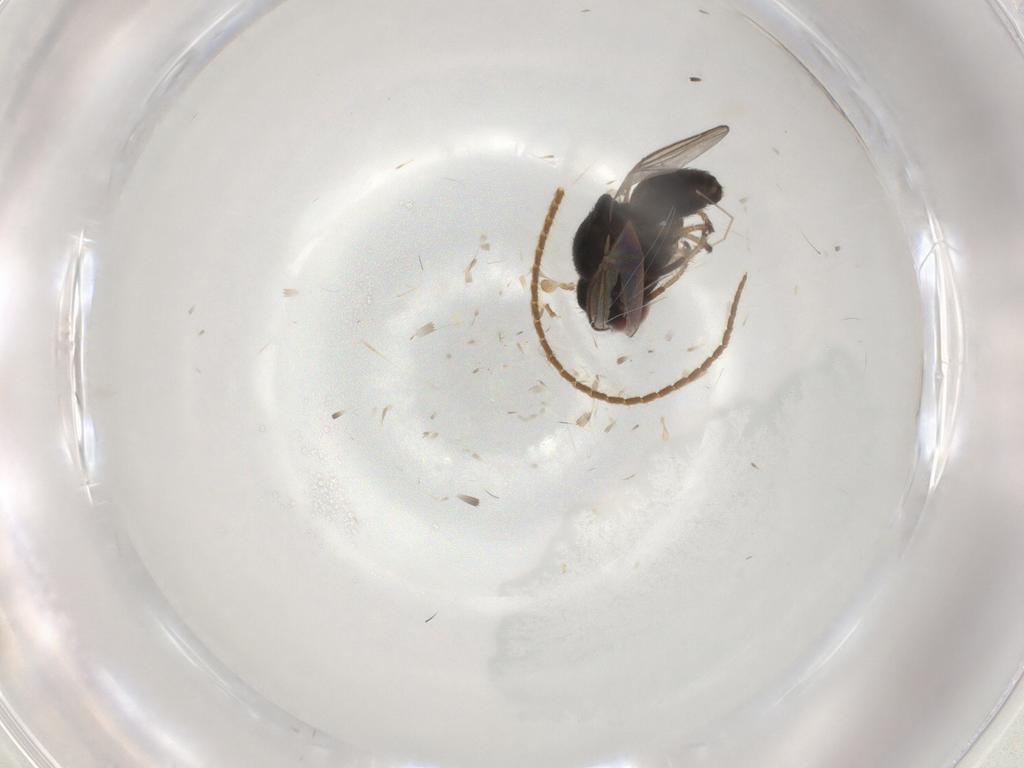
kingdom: Animalia
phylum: Arthropoda
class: Insecta
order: Diptera
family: Chloropidae
